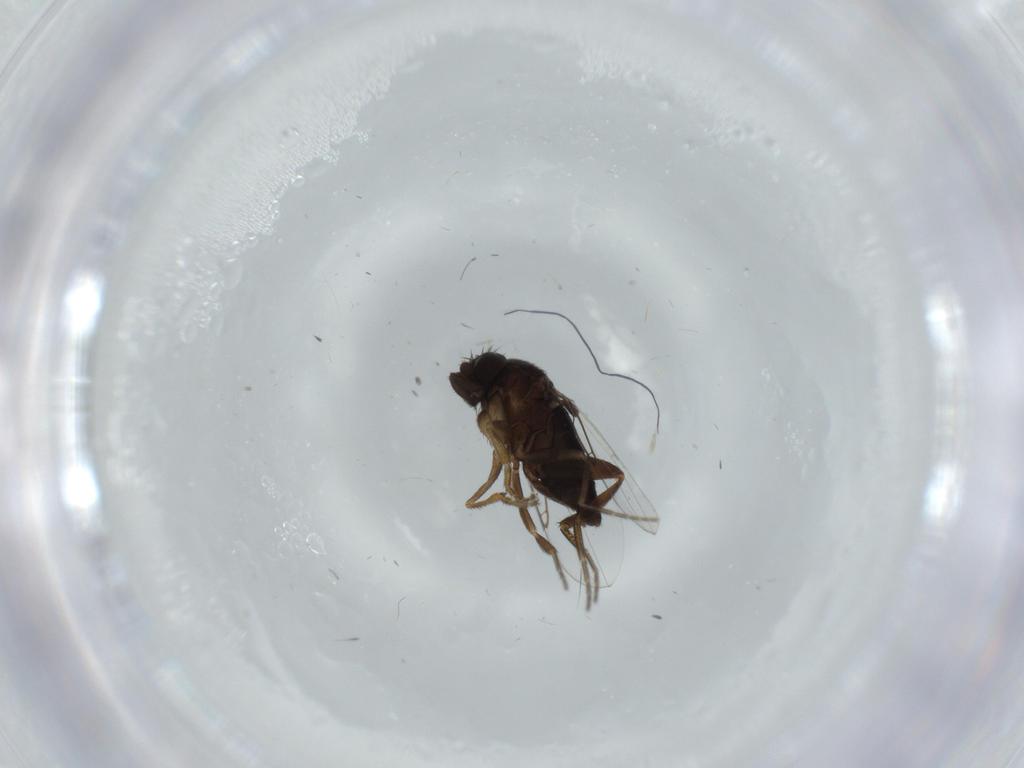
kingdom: Animalia
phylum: Arthropoda
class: Insecta
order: Diptera
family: Phoridae
